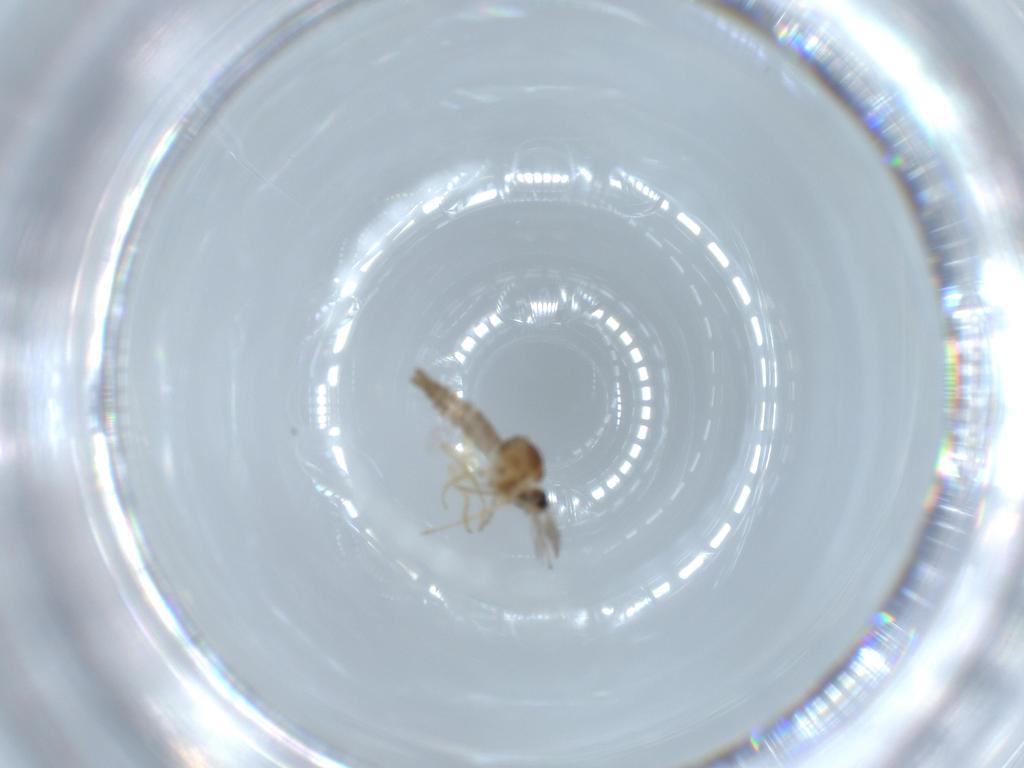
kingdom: Animalia
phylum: Arthropoda
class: Insecta
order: Diptera
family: Ceratopogonidae
